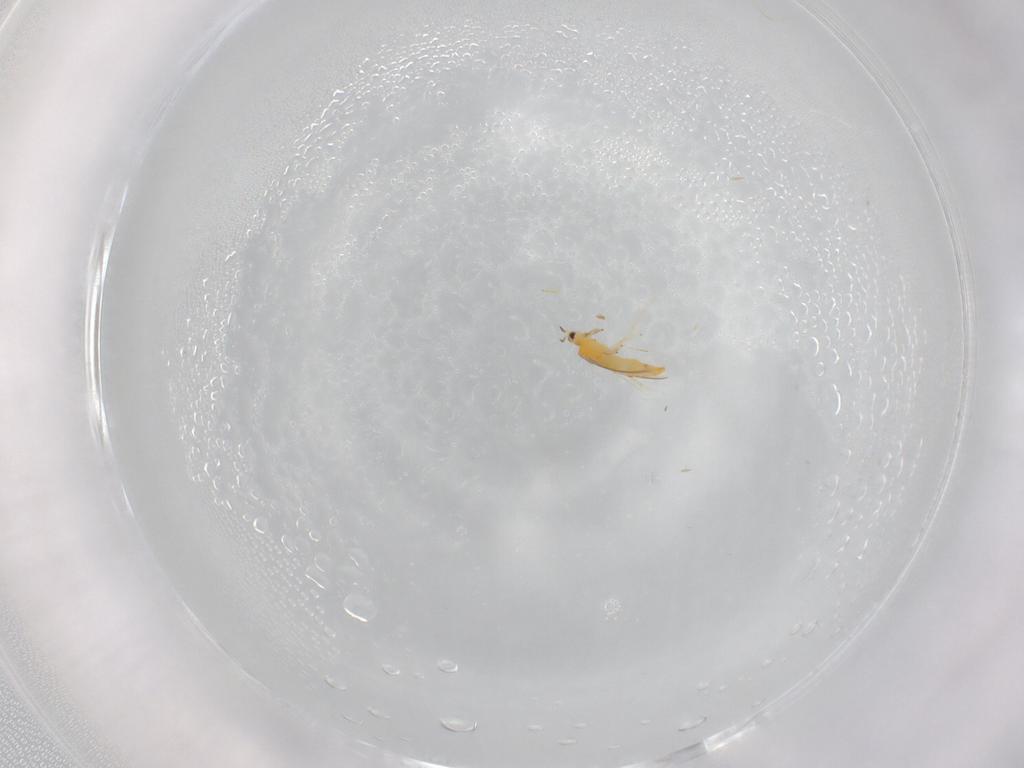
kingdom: Animalia
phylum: Arthropoda
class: Insecta
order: Thysanoptera
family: Thripidae
